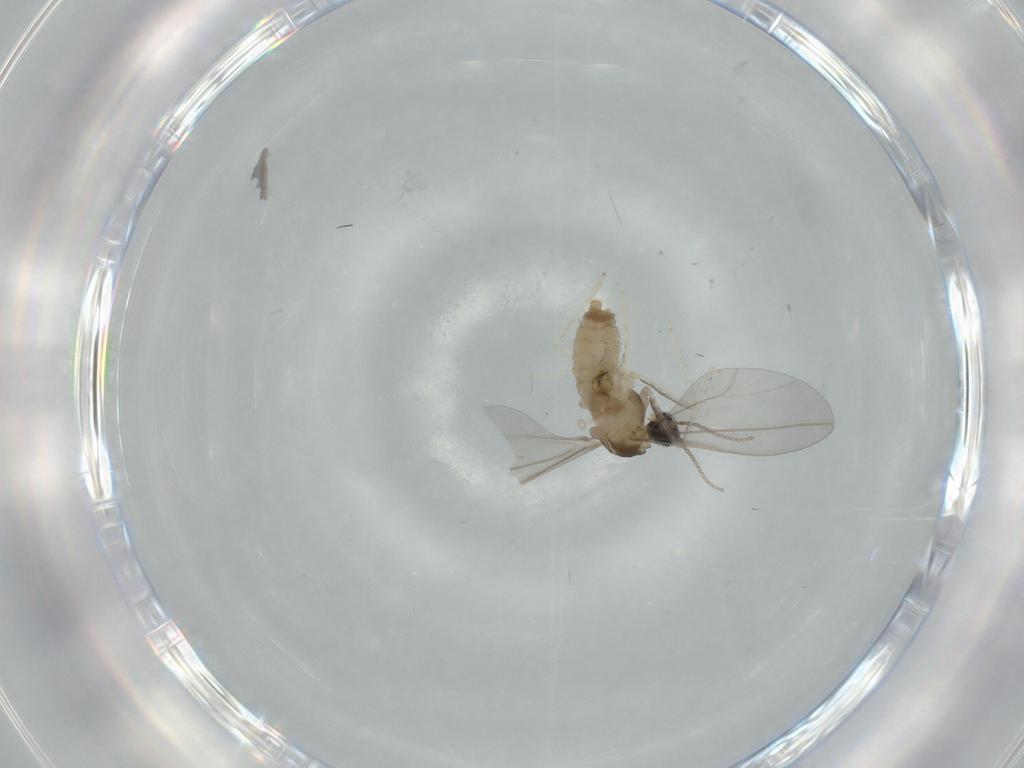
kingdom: Animalia
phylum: Arthropoda
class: Insecta
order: Diptera
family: Cecidomyiidae
